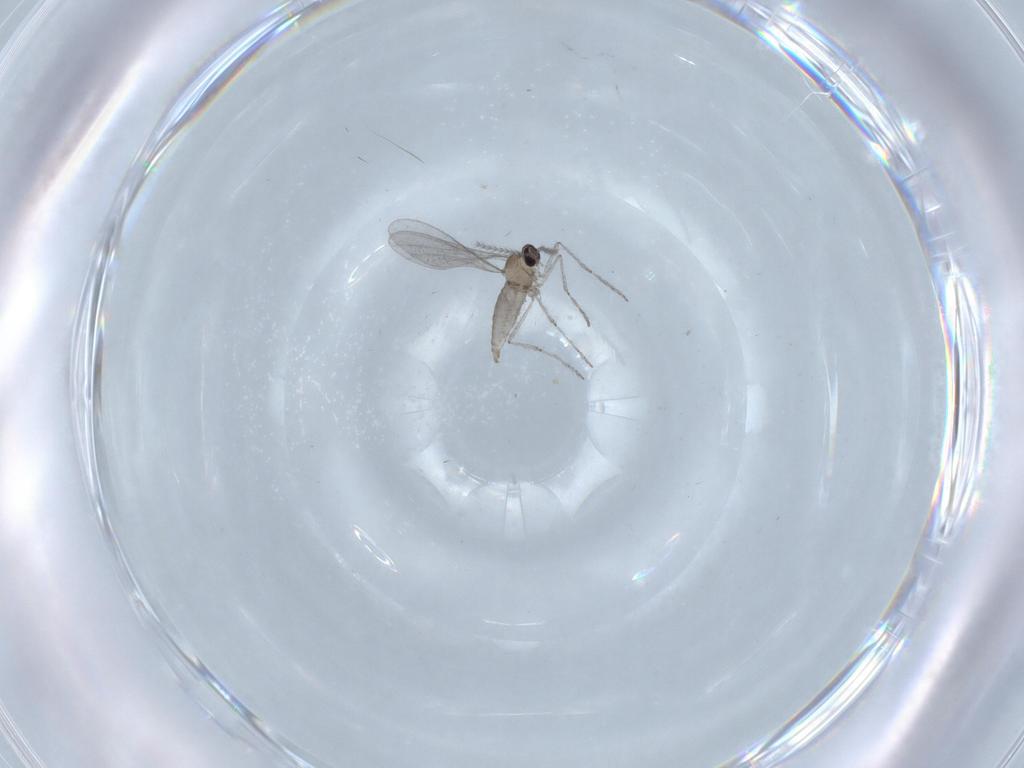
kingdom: Animalia
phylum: Arthropoda
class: Insecta
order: Diptera
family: Cecidomyiidae
